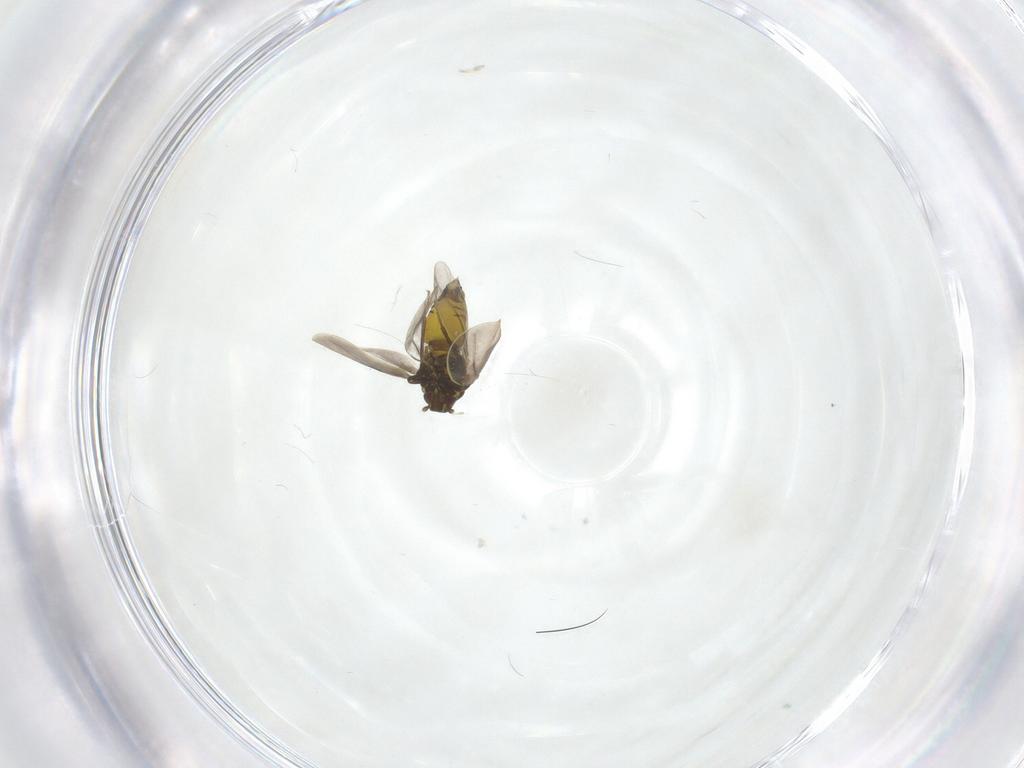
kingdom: Animalia
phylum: Arthropoda
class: Insecta
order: Hemiptera
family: Aleyrodidae
